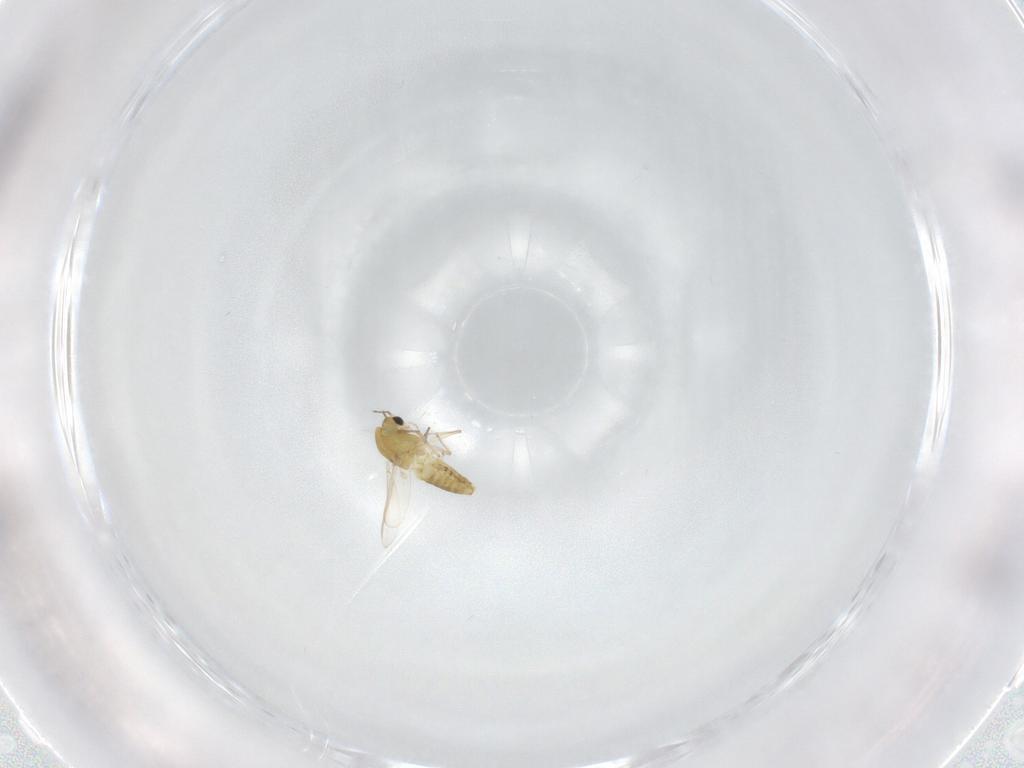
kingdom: Animalia
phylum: Arthropoda
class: Insecta
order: Diptera
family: Chironomidae
